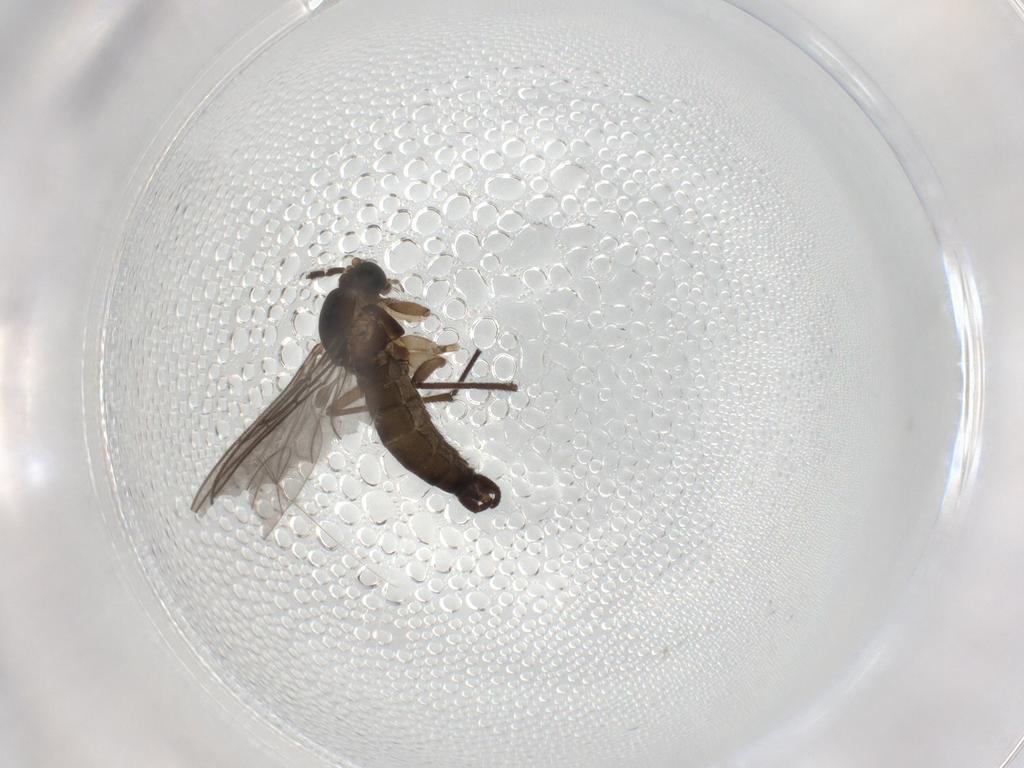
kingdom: Animalia
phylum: Arthropoda
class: Insecta
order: Diptera
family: Sciaridae
